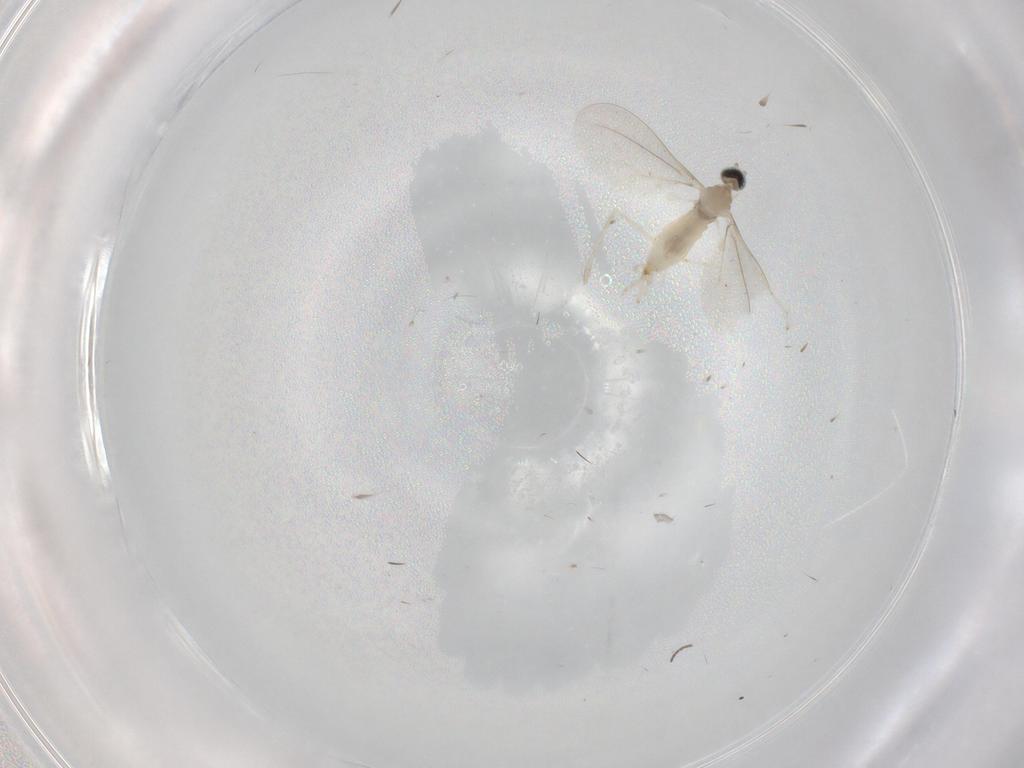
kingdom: Animalia
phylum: Arthropoda
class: Insecta
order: Diptera
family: Cecidomyiidae
